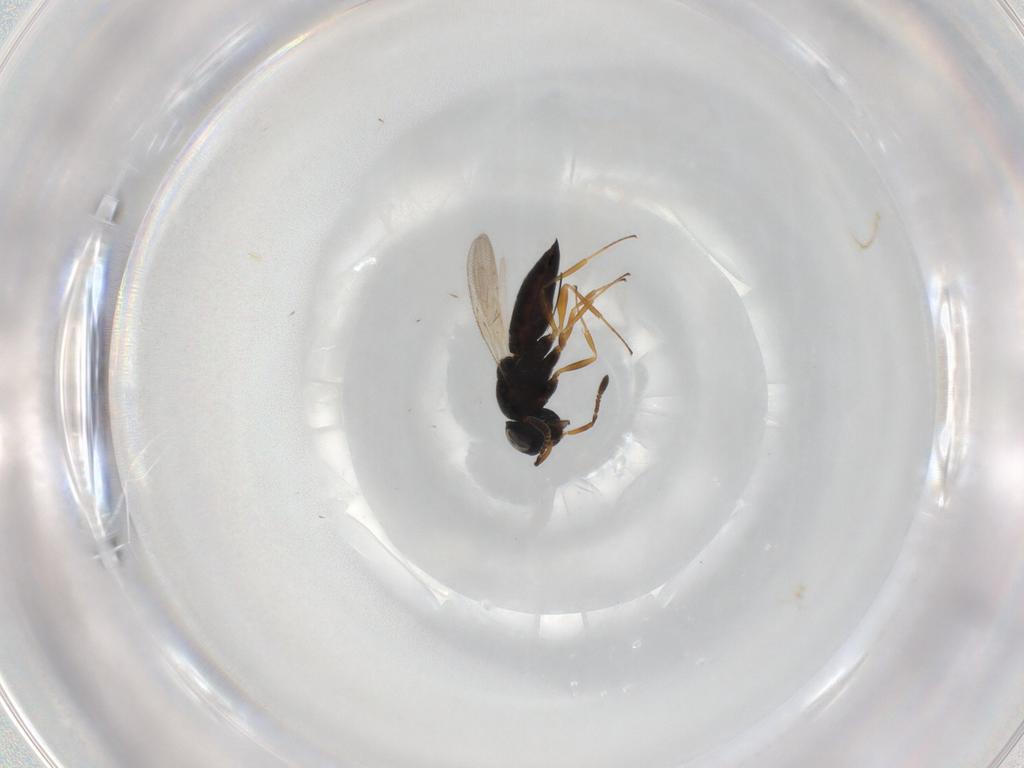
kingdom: Animalia
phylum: Arthropoda
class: Insecta
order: Hymenoptera
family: Scelionidae
